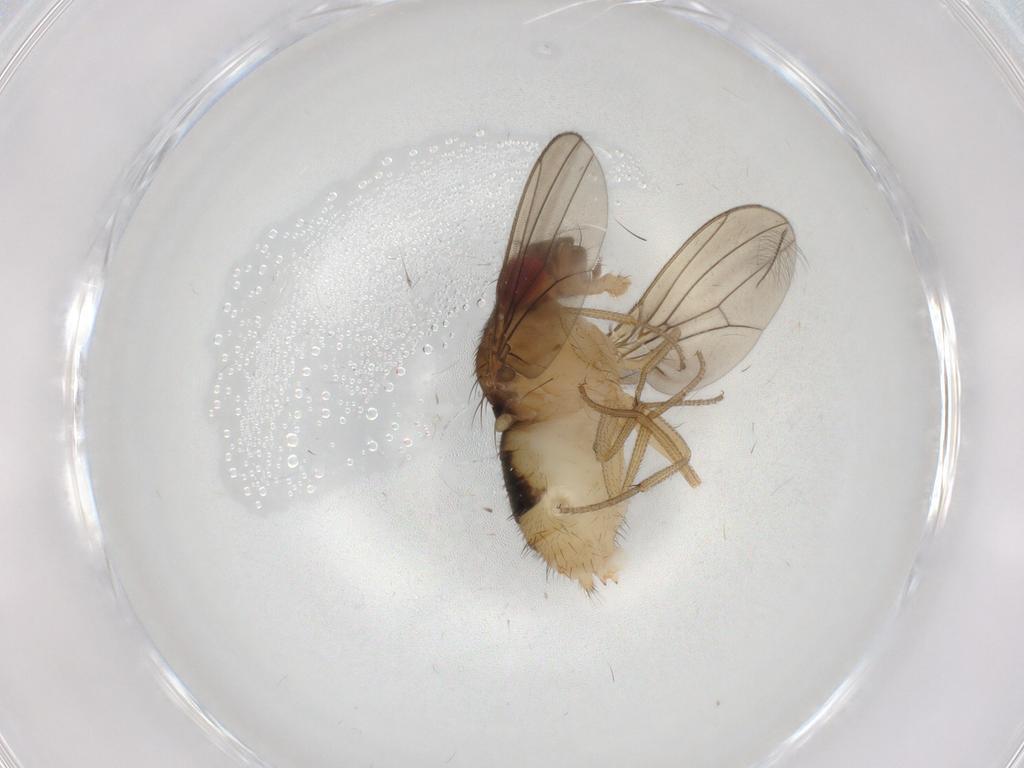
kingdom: Animalia
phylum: Arthropoda
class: Insecta
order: Diptera
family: Drosophilidae
